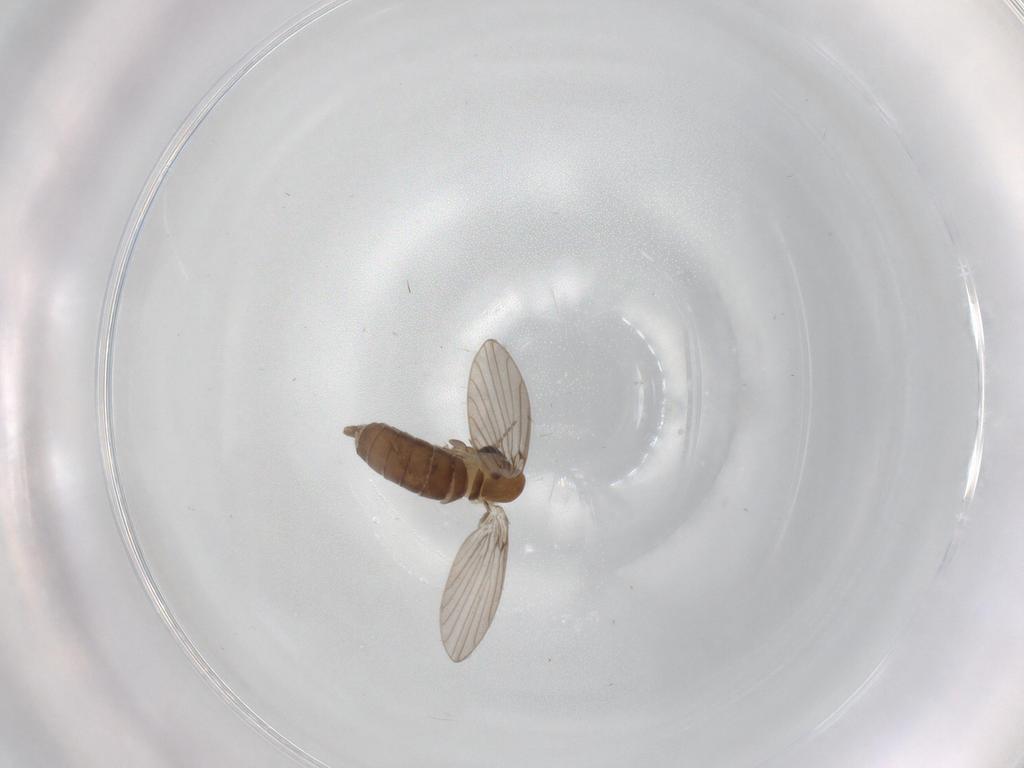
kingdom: Animalia
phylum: Arthropoda
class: Insecta
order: Diptera
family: Psychodidae
